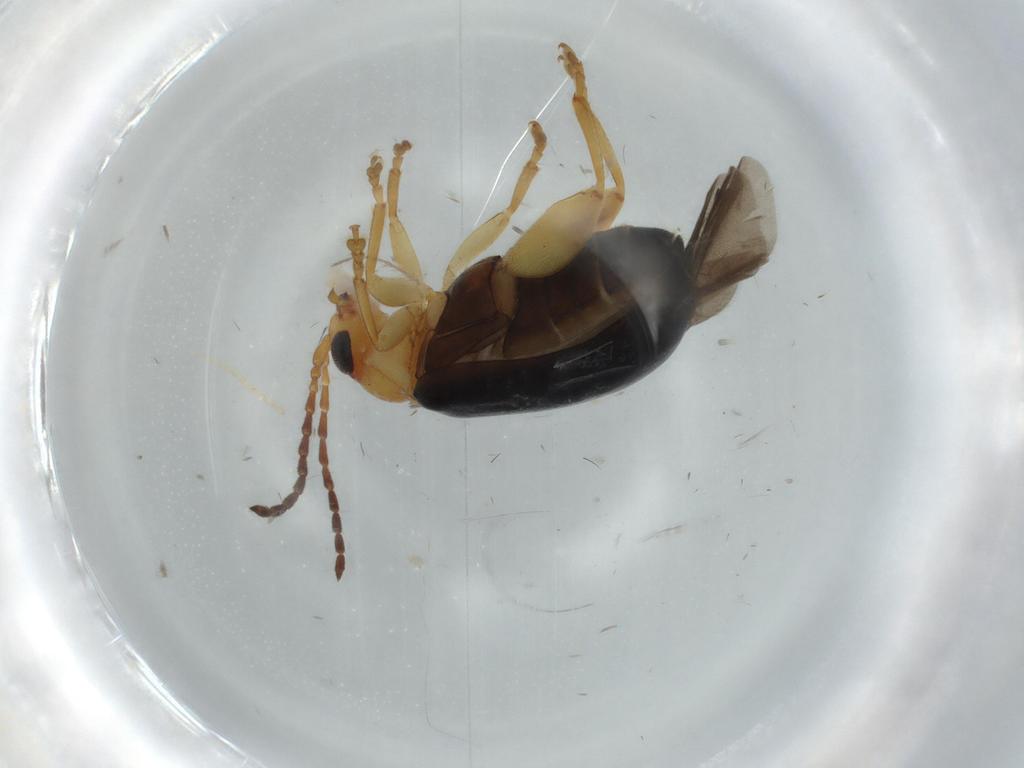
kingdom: Animalia
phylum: Arthropoda
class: Insecta
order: Coleoptera
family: Chrysomelidae
